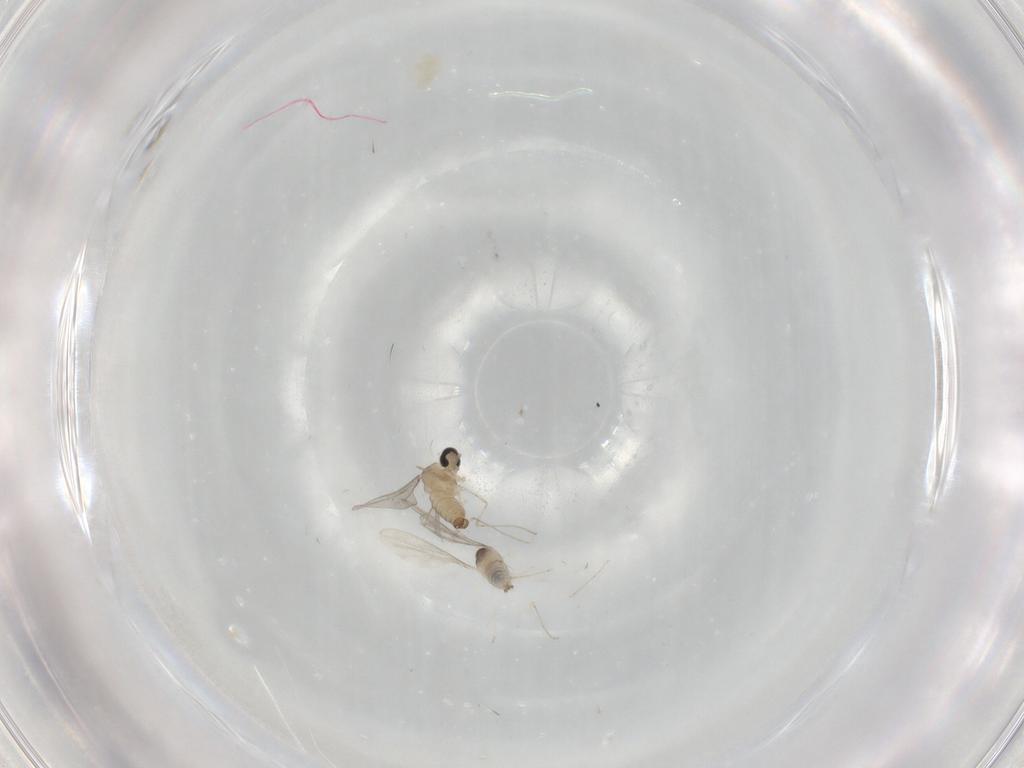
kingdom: Animalia
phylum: Arthropoda
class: Insecta
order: Diptera
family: Cecidomyiidae
